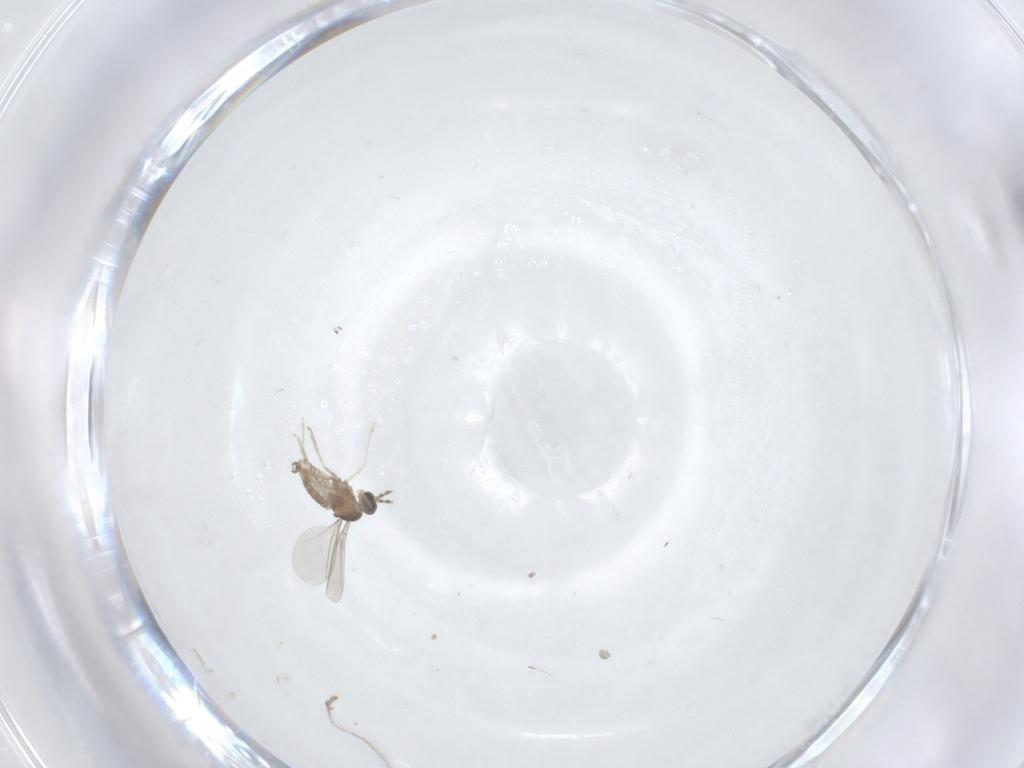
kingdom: Animalia
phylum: Arthropoda
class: Insecta
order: Diptera
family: Cecidomyiidae
